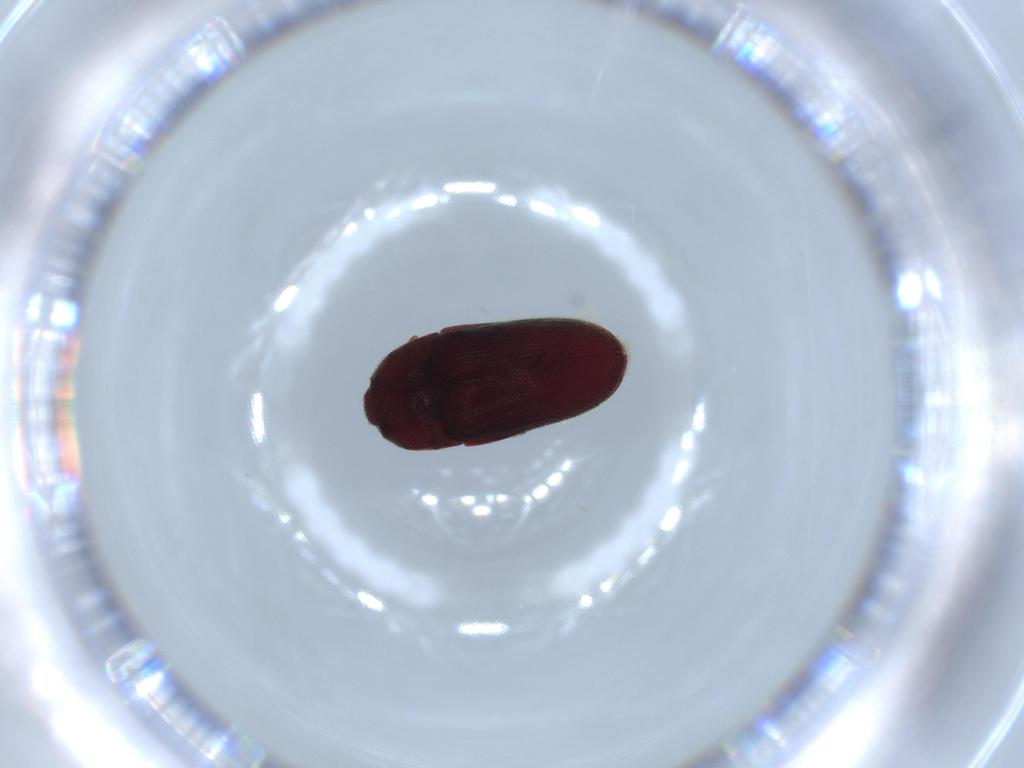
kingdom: Animalia
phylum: Arthropoda
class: Insecta
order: Coleoptera
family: Throscidae
